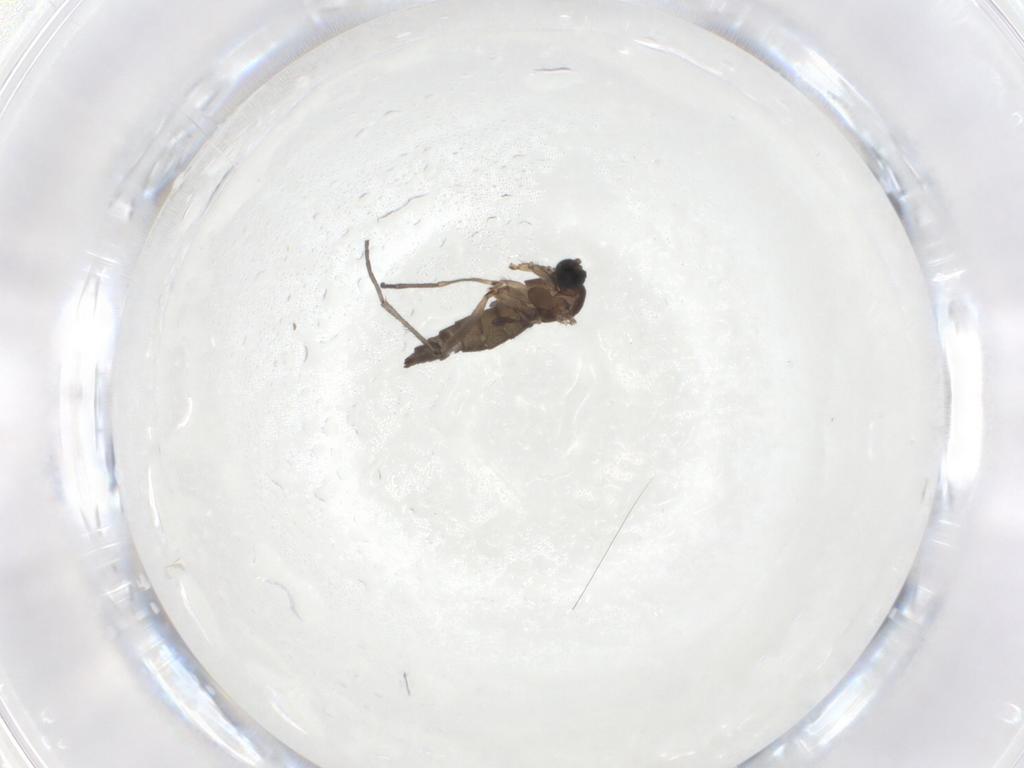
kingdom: Animalia
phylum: Arthropoda
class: Insecta
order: Diptera
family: Sciaridae
